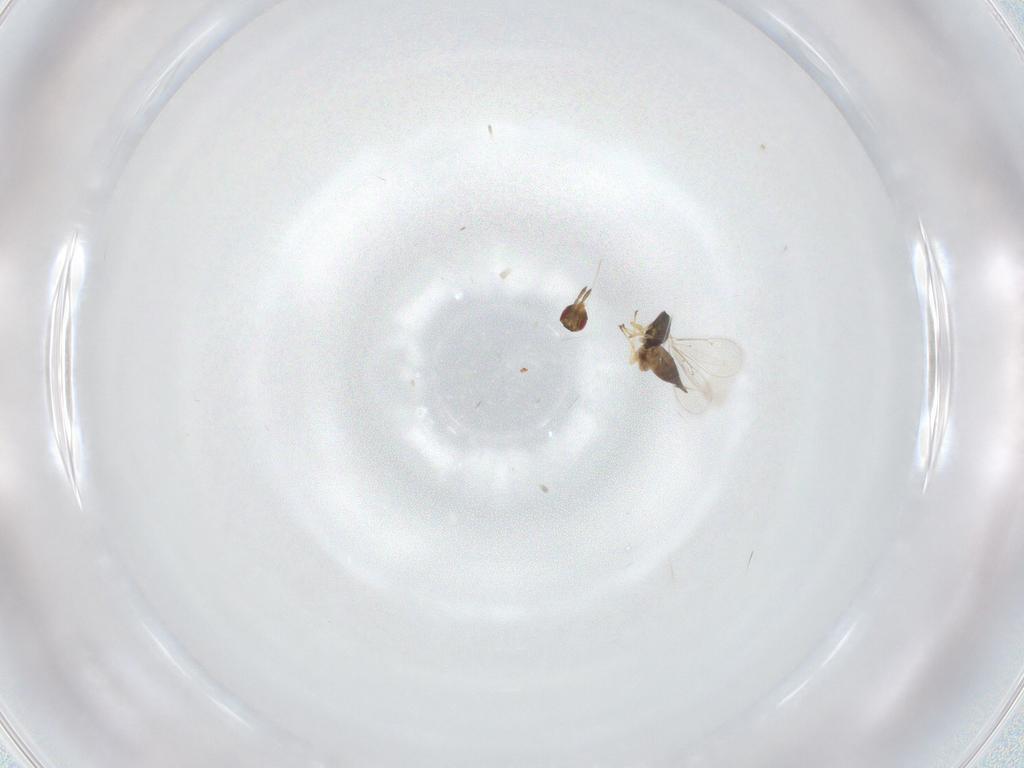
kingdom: Animalia
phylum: Arthropoda
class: Insecta
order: Hymenoptera
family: Eulophidae
